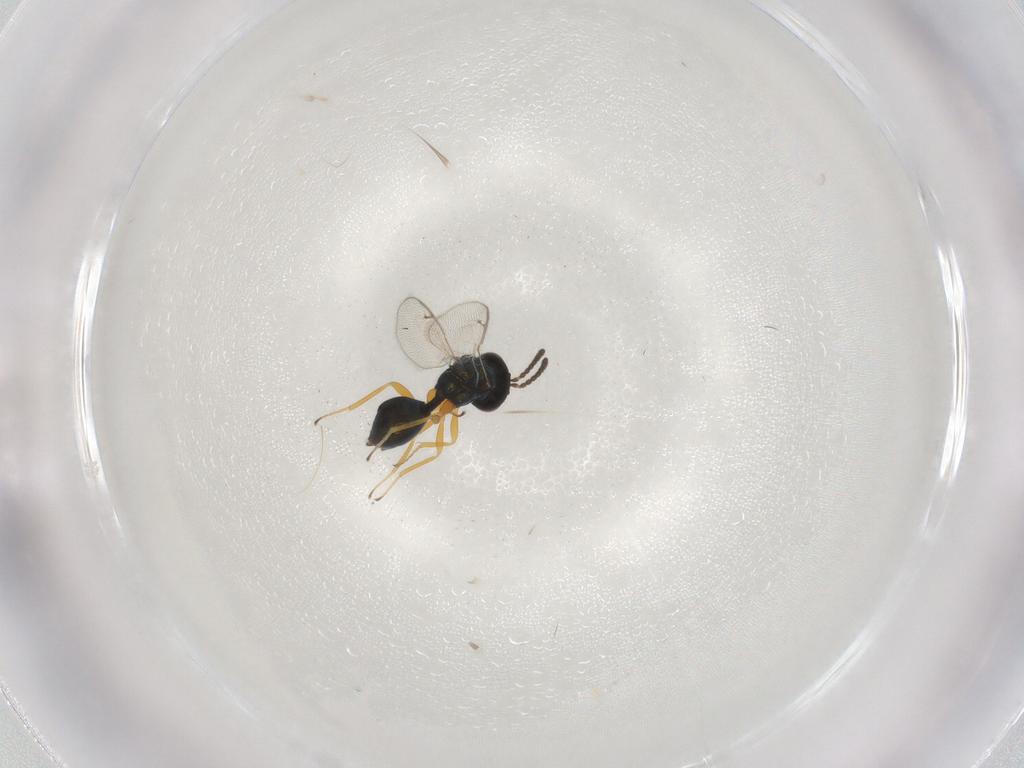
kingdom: Animalia
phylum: Arthropoda
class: Insecta
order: Hymenoptera
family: Pteromalidae
